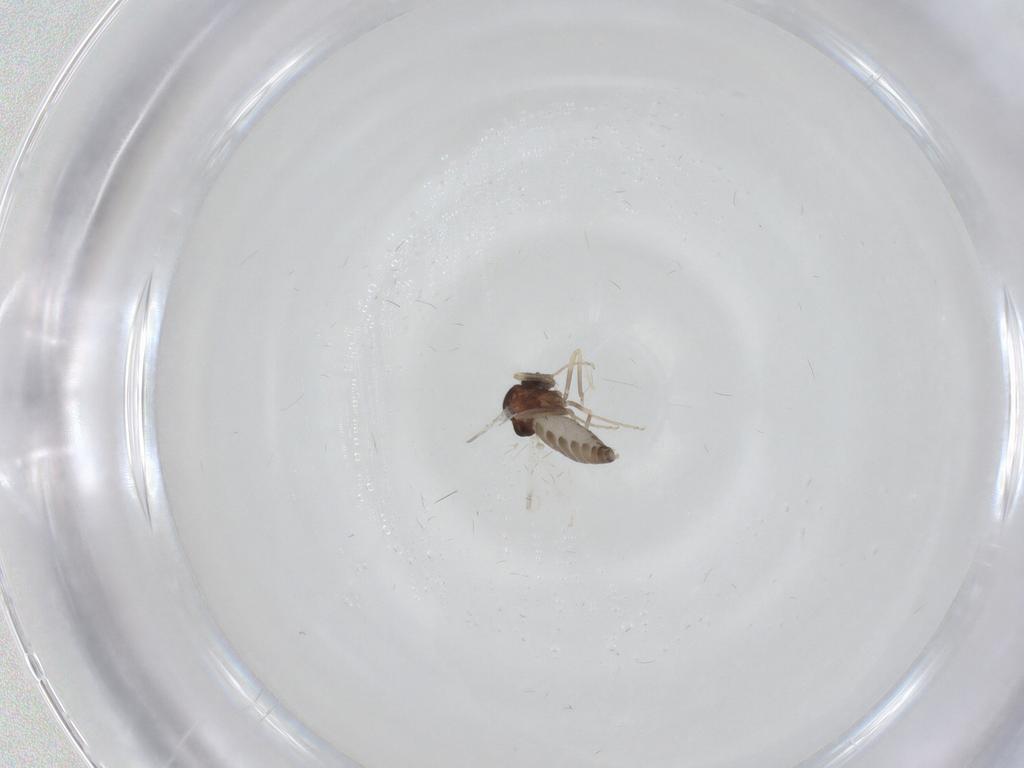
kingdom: Animalia
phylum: Arthropoda
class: Insecta
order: Diptera
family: Ceratopogonidae
